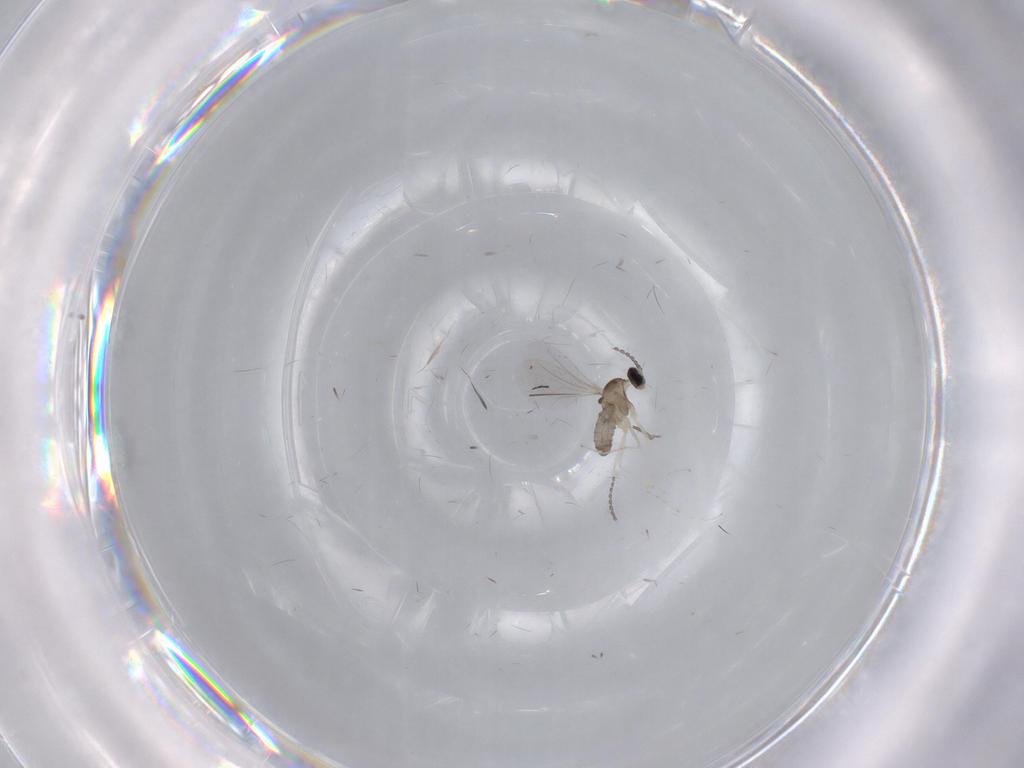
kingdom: Animalia
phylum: Arthropoda
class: Insecta
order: Diptera
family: Cecidomyiidae
